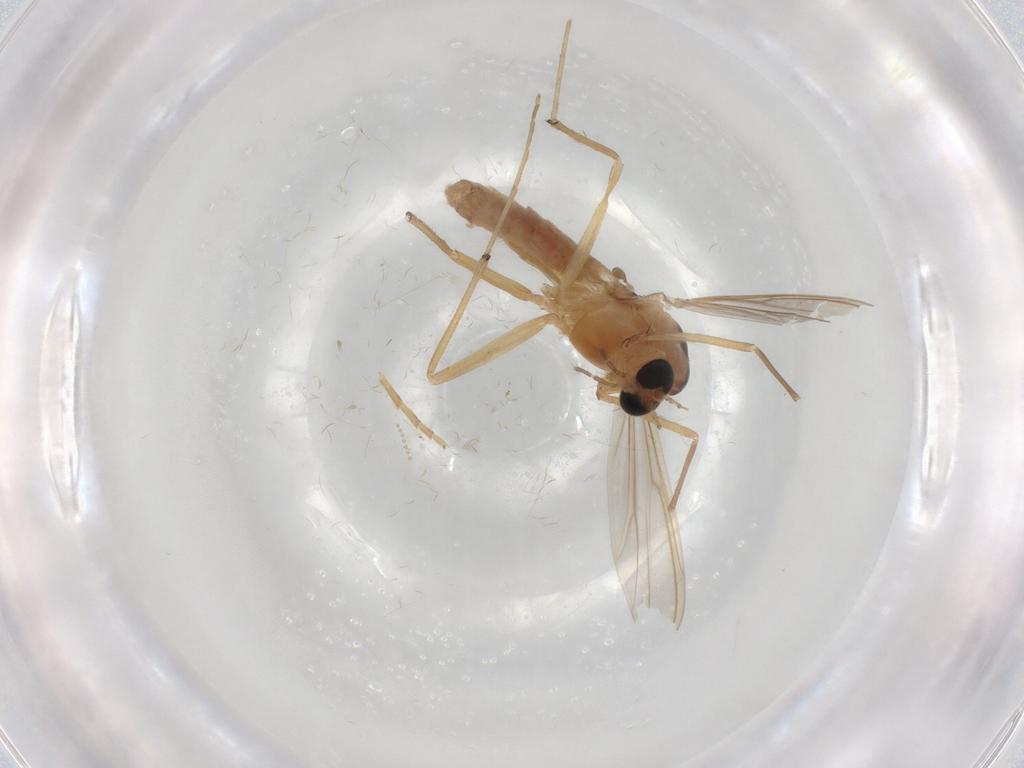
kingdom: Animalia
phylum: Arthropoda
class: Insecta
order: Diptera
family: Chironomidae
